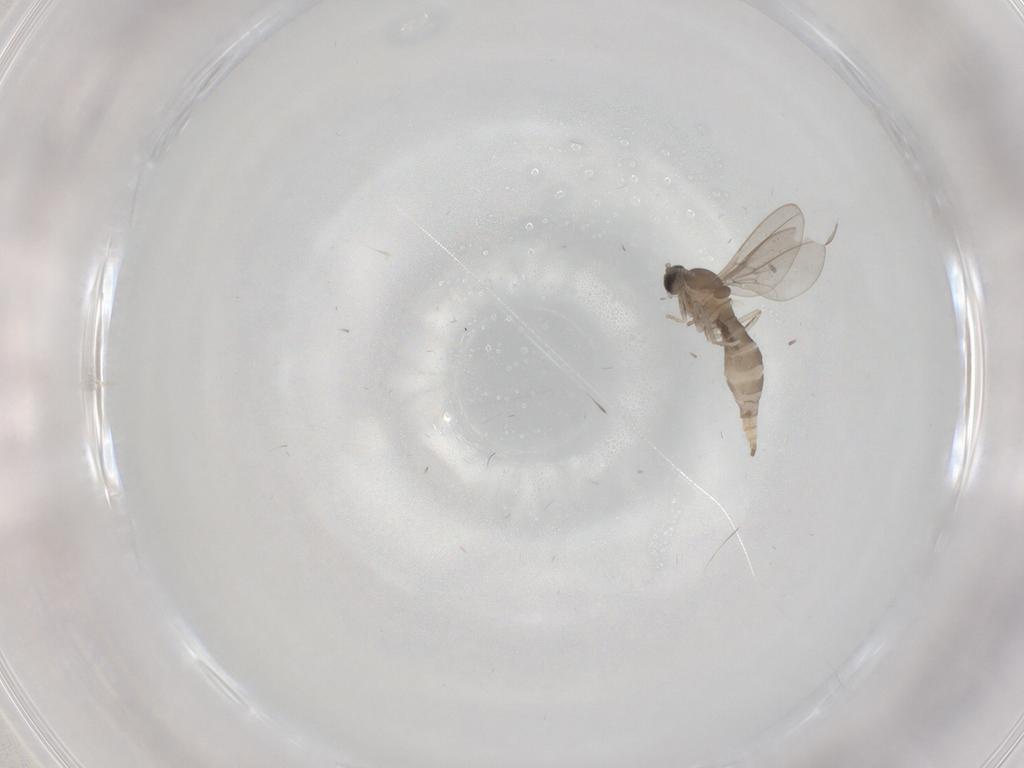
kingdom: Animalia
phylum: Arthropoda
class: Insecta
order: Diptera
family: Cecidomyiidae
